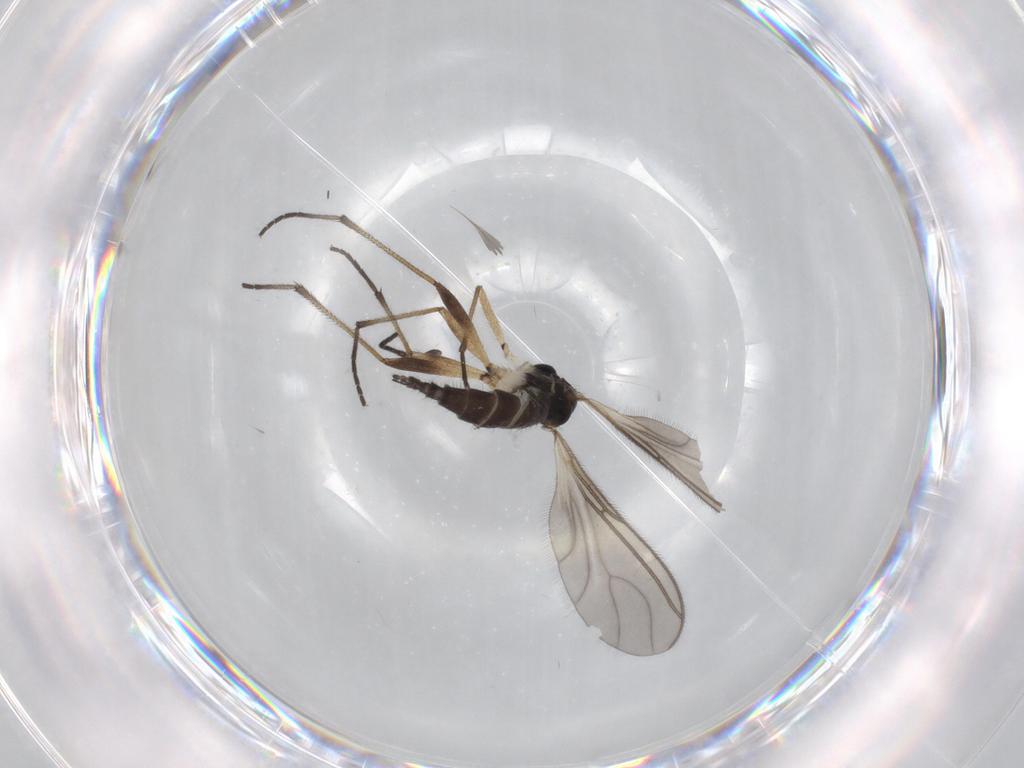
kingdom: Animalia
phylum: Arthropoda
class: Insecta
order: Diptera
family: Sciaridae
